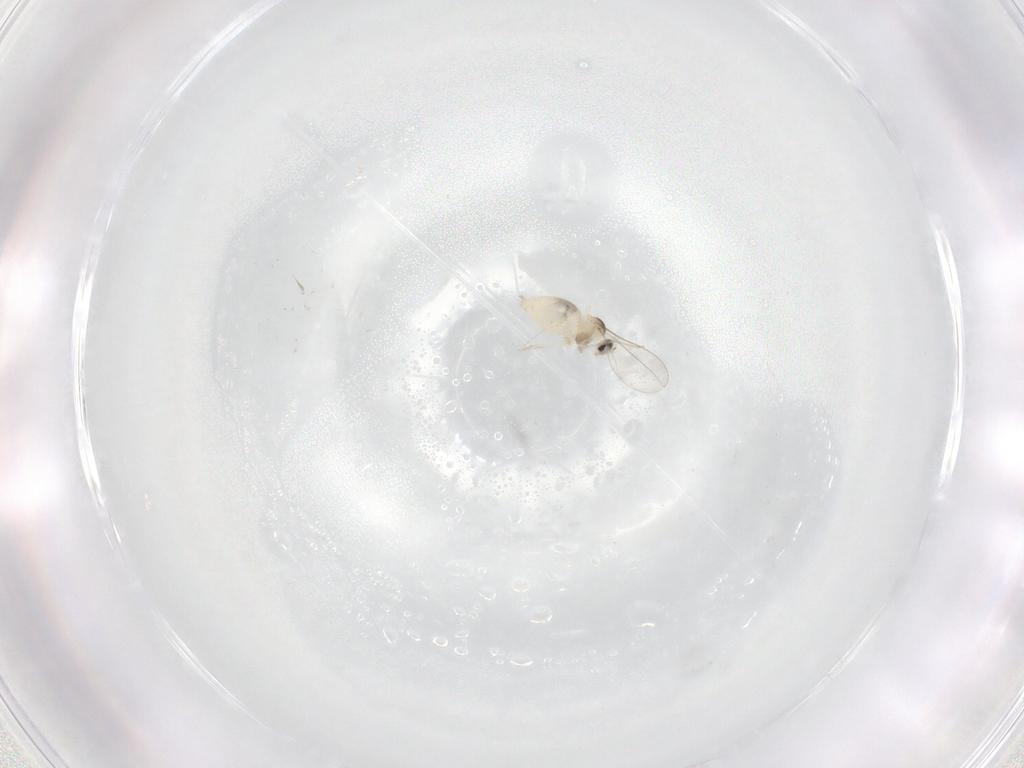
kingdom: Animalia
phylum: Arthropoda
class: Insecta
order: Diptera
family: Cecidomyiidae
